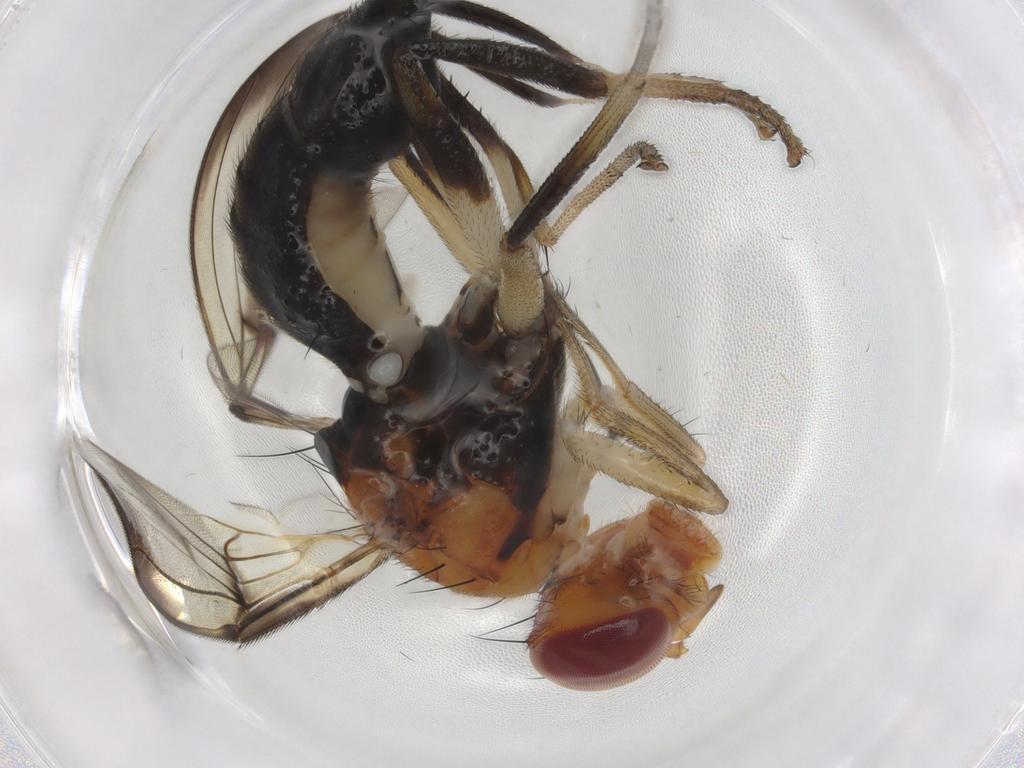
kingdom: Animalia
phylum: Arthropoda
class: Insecta
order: Diptera
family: Richardiidae
